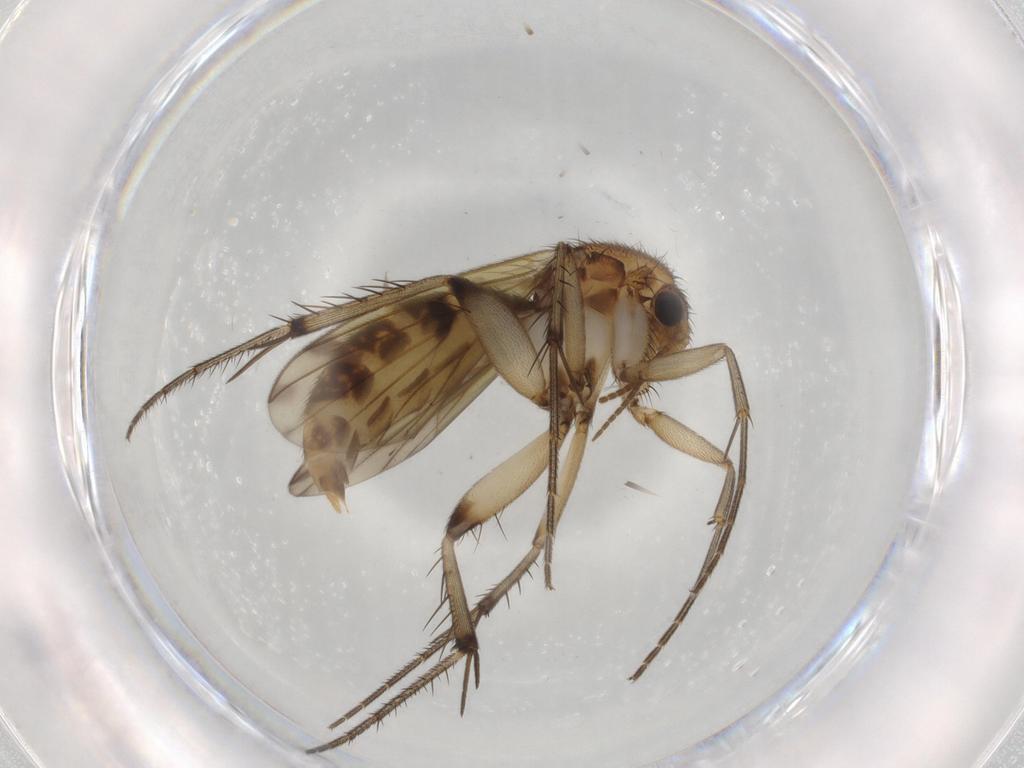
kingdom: Animalia
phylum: Arthropoda
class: Insecta
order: Diptera
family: Mycetophilidae
